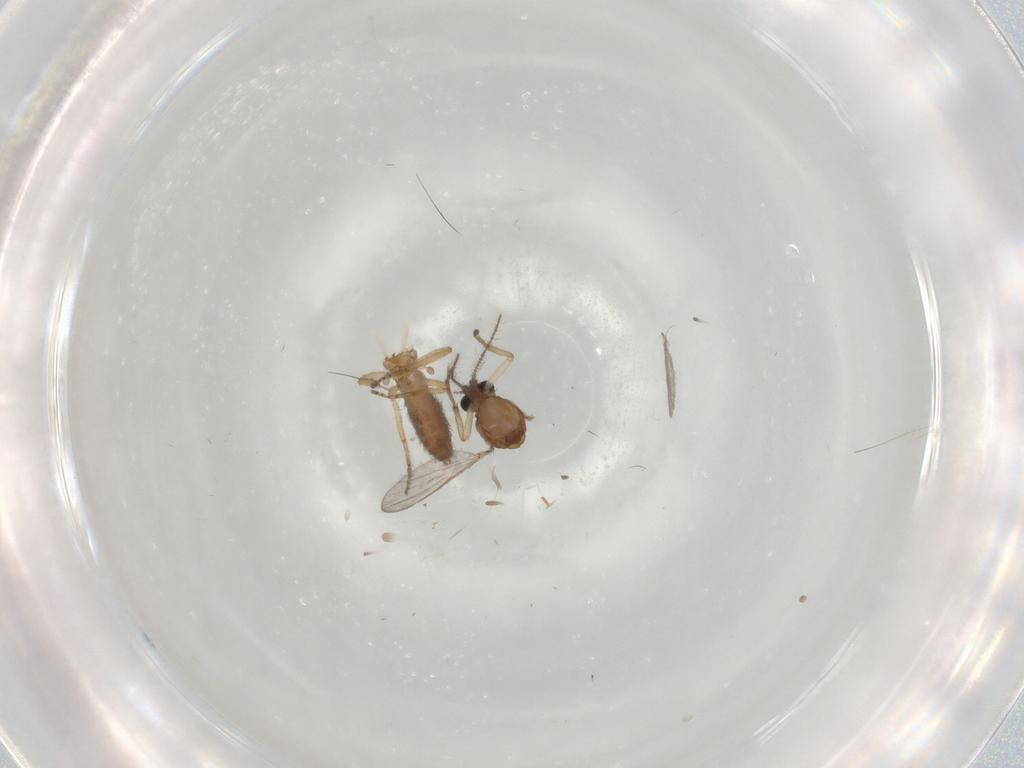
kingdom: Animalia
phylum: Arthropoda
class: Insecta
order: Diptera
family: Ceratopogonidae
